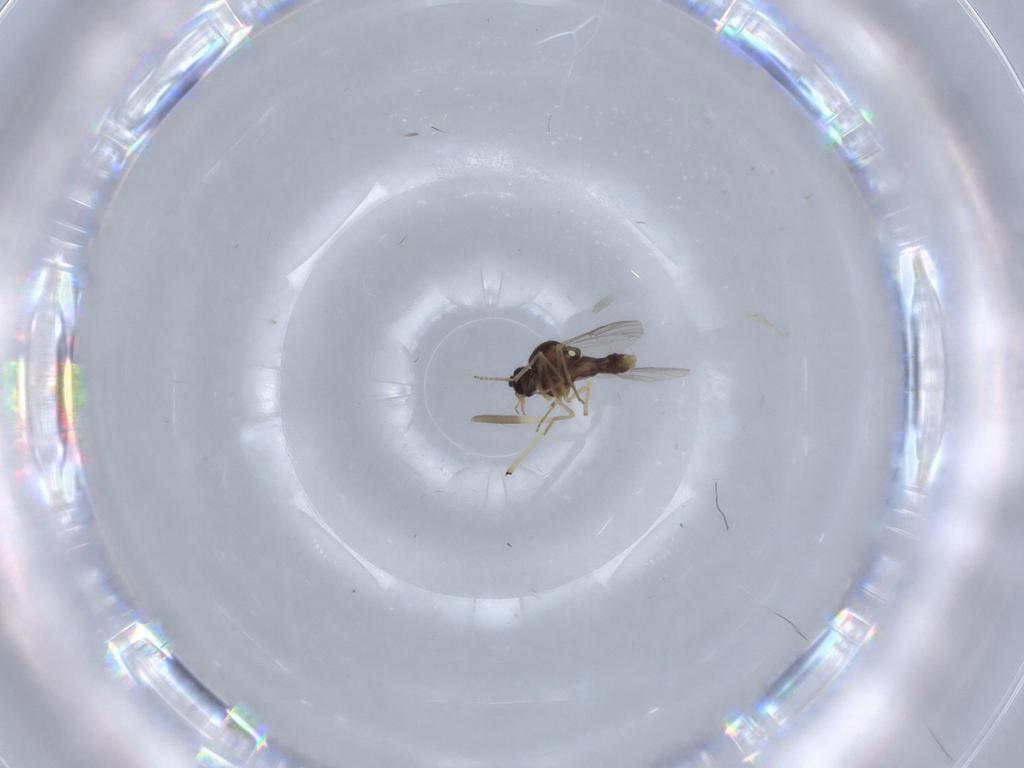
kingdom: Animalia
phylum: Arthropoda
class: Insecta
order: Diptera
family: Ceratopogonidae
